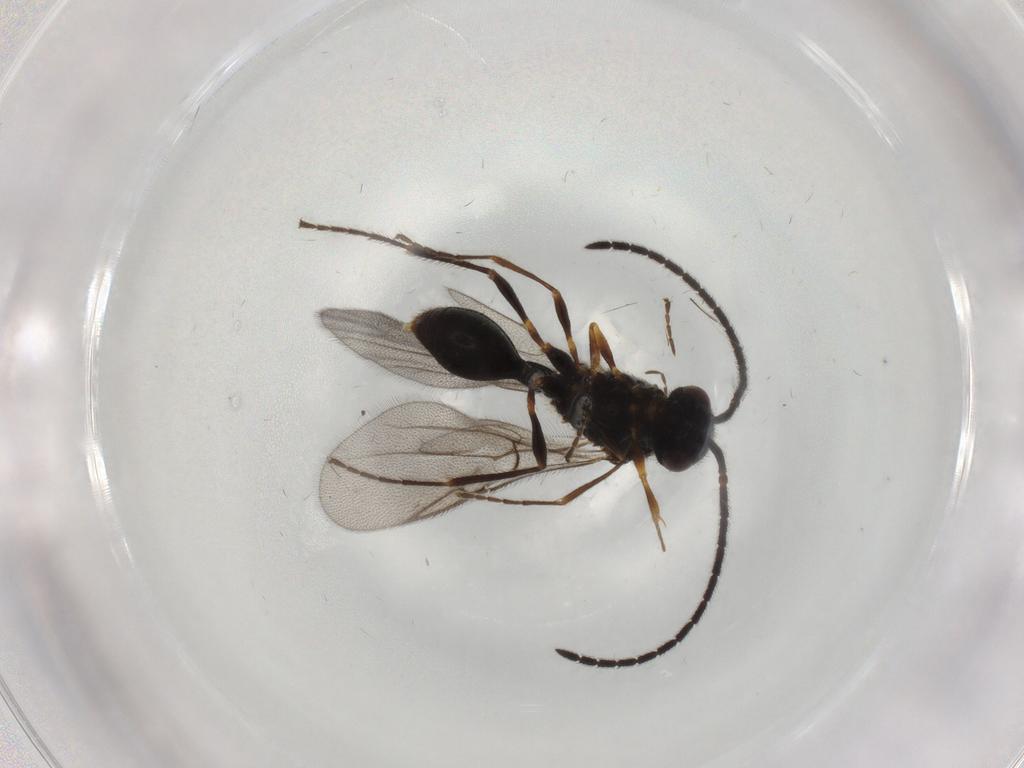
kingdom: Animalia
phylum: Arthropoda
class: Insecta
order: Hymenoptera
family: Diapriidae
